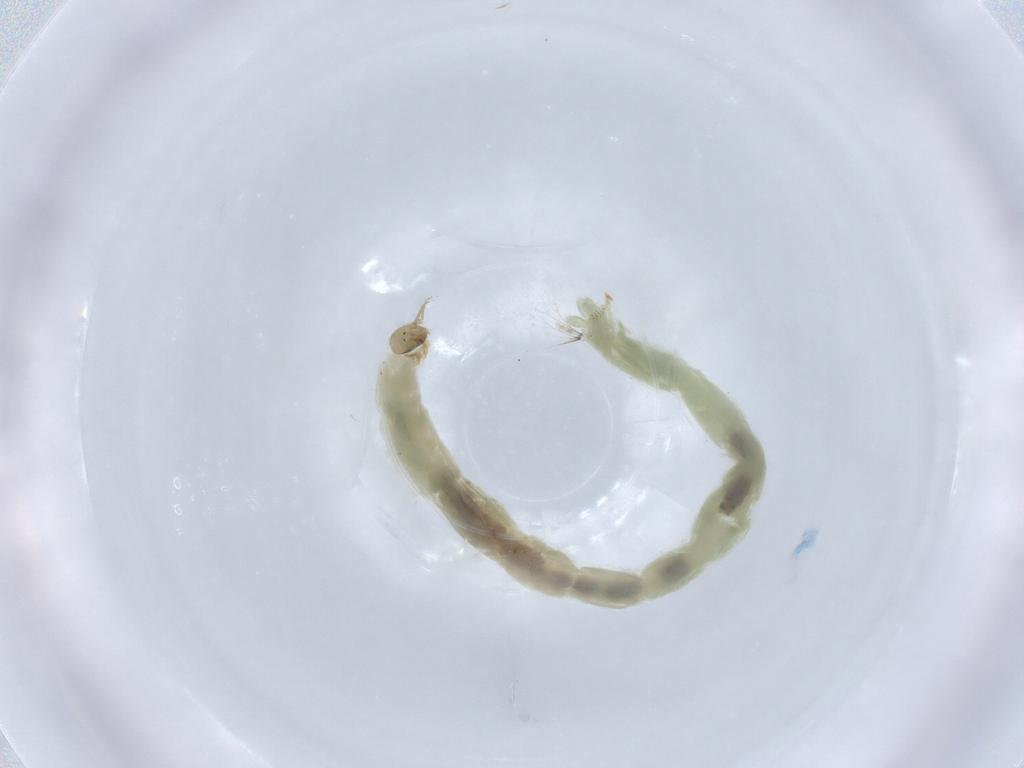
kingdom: Animalia
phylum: Arthropoda
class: Insecta
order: Diptera
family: Chironomidae
